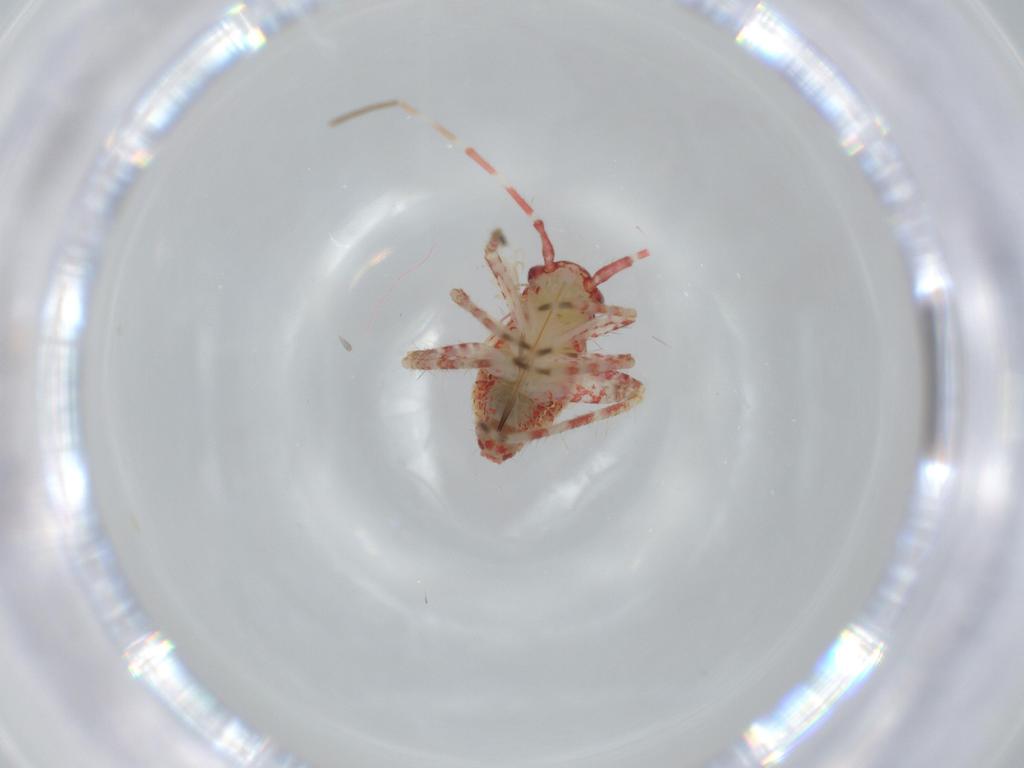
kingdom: Animalia
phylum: Arthropoda
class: Insecta
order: Hemiptera
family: Miridae
